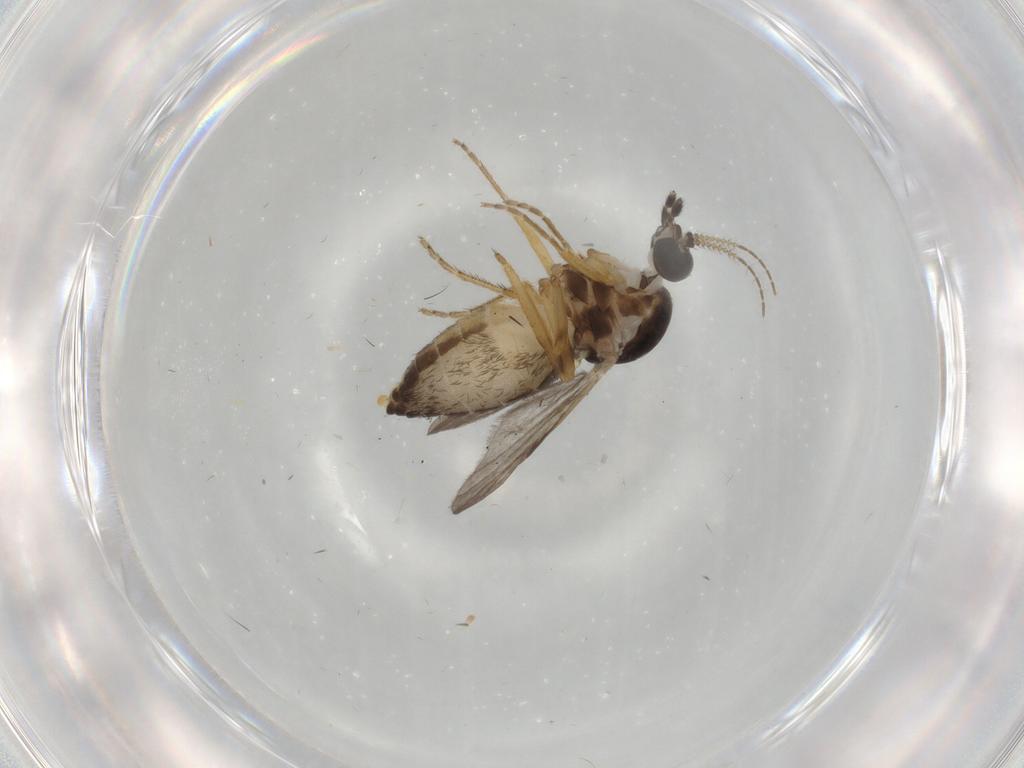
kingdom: Animalia
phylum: Arthropoda
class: Insecta
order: Diptera
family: Ceratopogonidae
